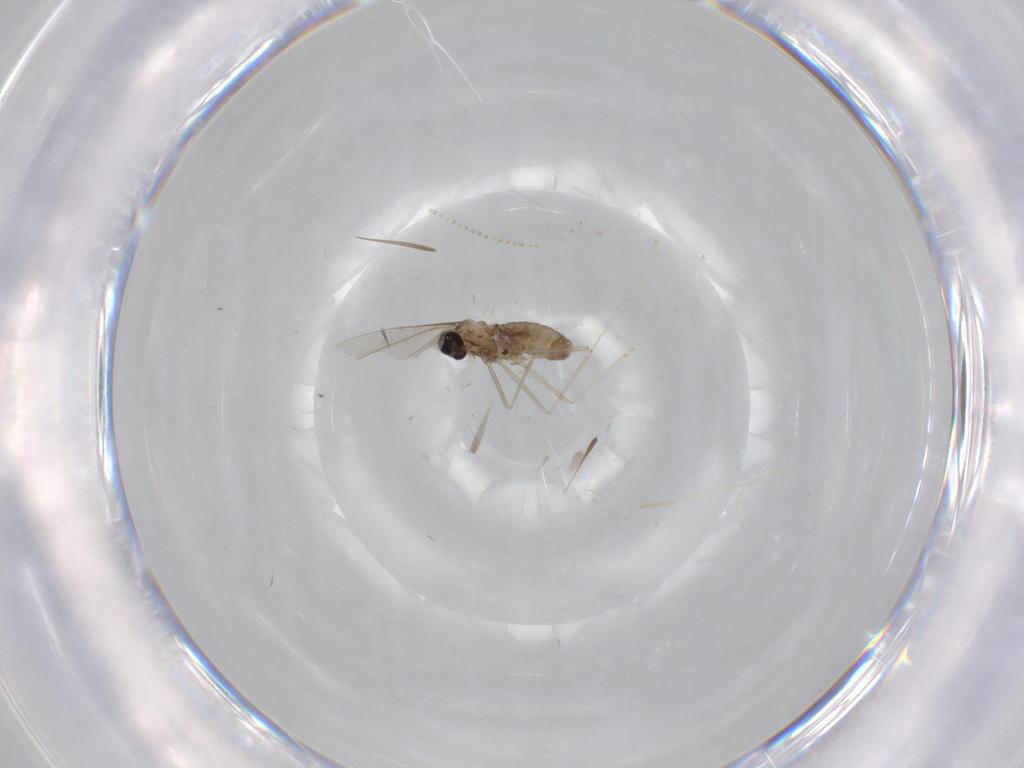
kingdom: Animalia
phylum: Arthropoda
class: Insecta
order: Diptera
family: Cecidomyiidae
